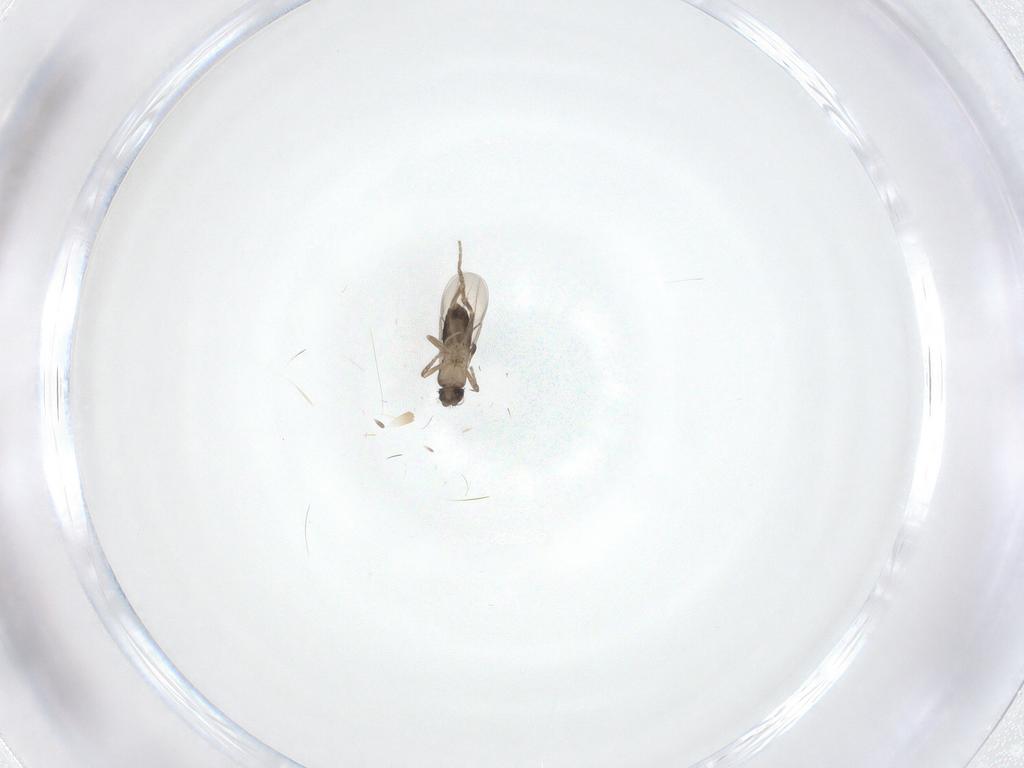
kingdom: Animalia
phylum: Arthropoda
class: Insecta
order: Diptera
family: Phoridae
